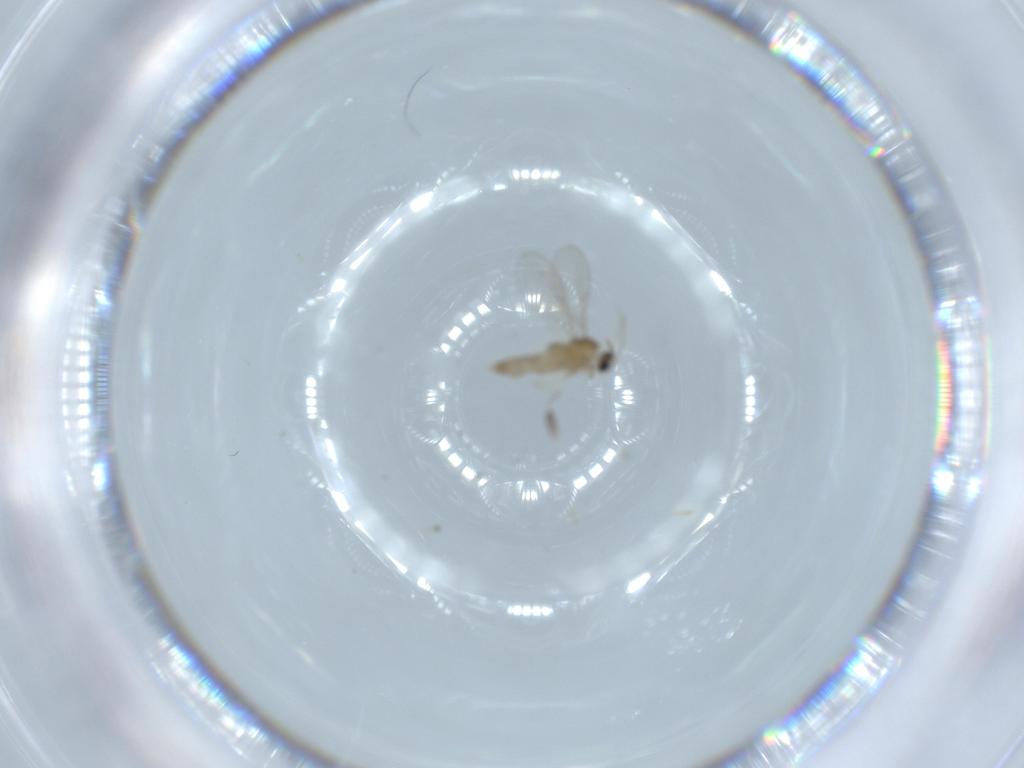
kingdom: Animalia
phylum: Arthropoda
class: Insecta
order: Diptera
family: Cecidomyiidae
